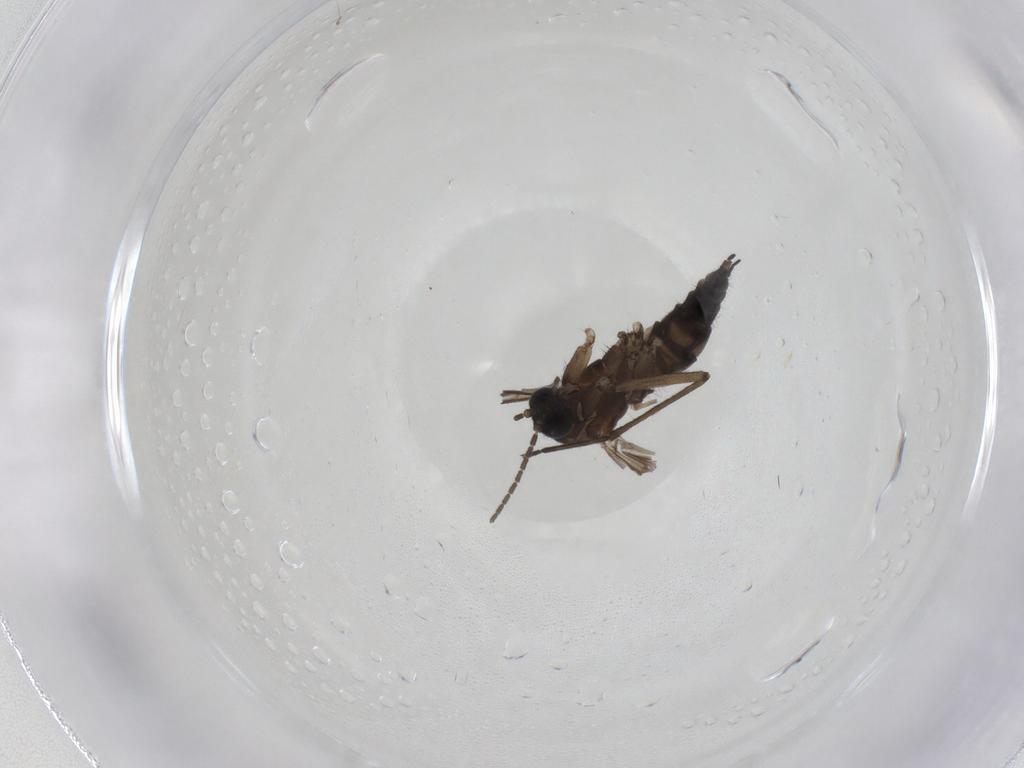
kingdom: Animalia
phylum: Arthropoda
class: Insecta
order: Diptera
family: Sciaridae
